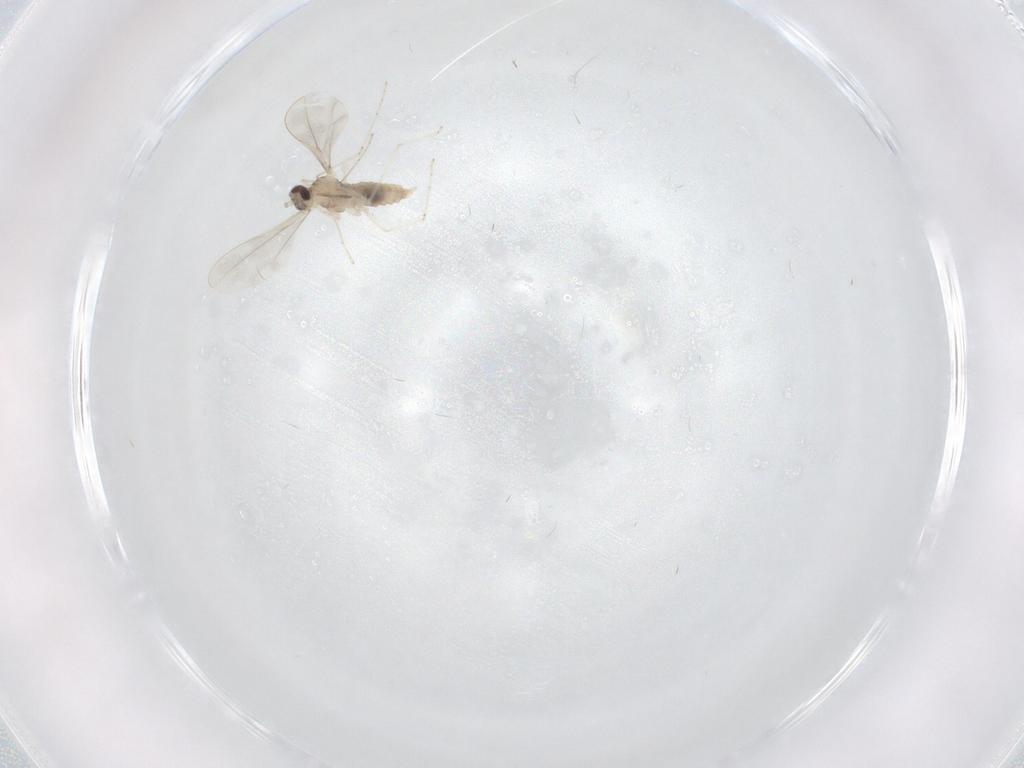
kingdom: Animalia
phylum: Arthropoda
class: Insecta
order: Diptera
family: Cecidomyiidae
